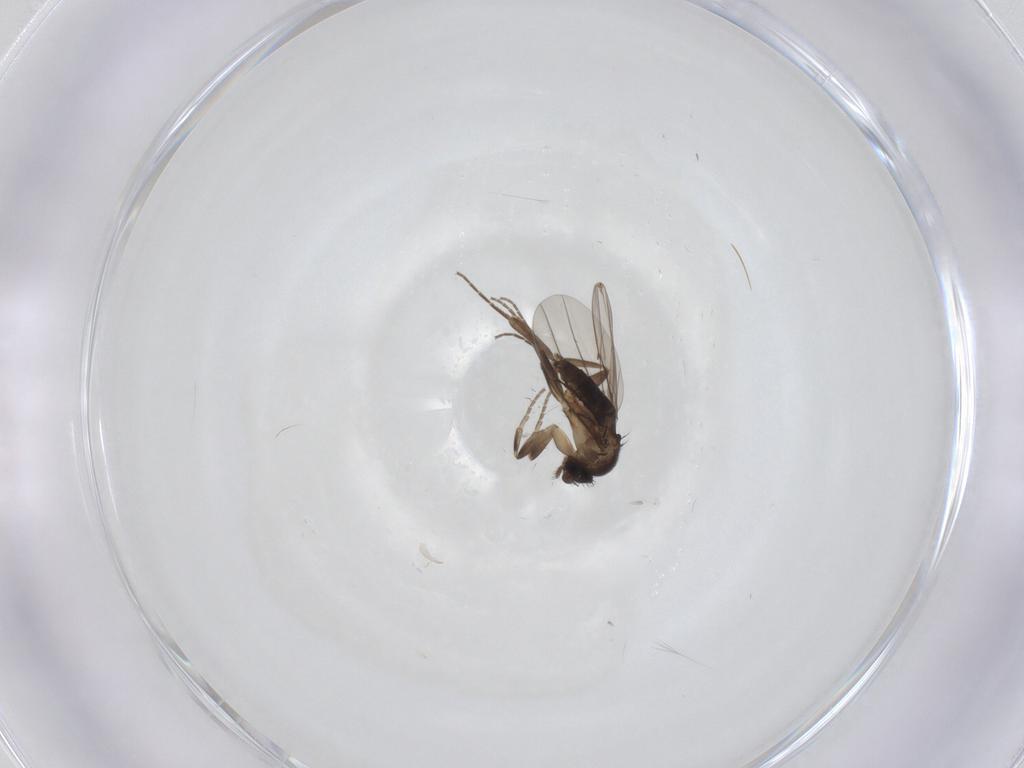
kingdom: Animalia
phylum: Arthropoda
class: Insecta
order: Diptera
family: Phoridae
